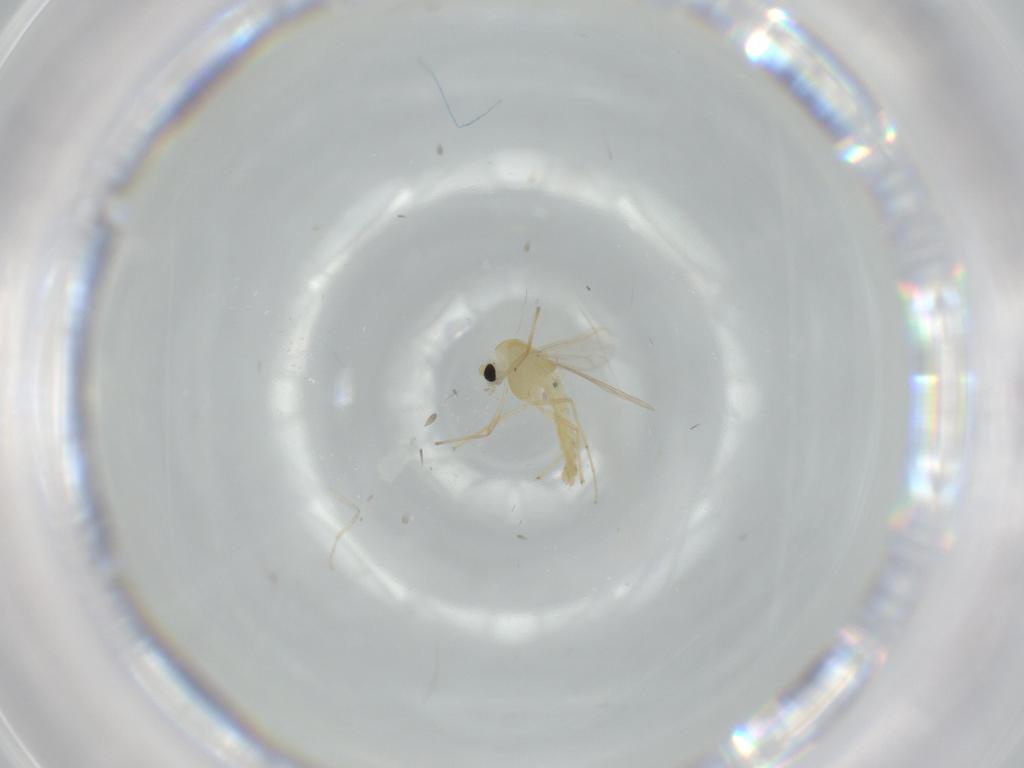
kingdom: Animalia
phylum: Arthropoda
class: Insecta
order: Diptera
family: Chironomidae
